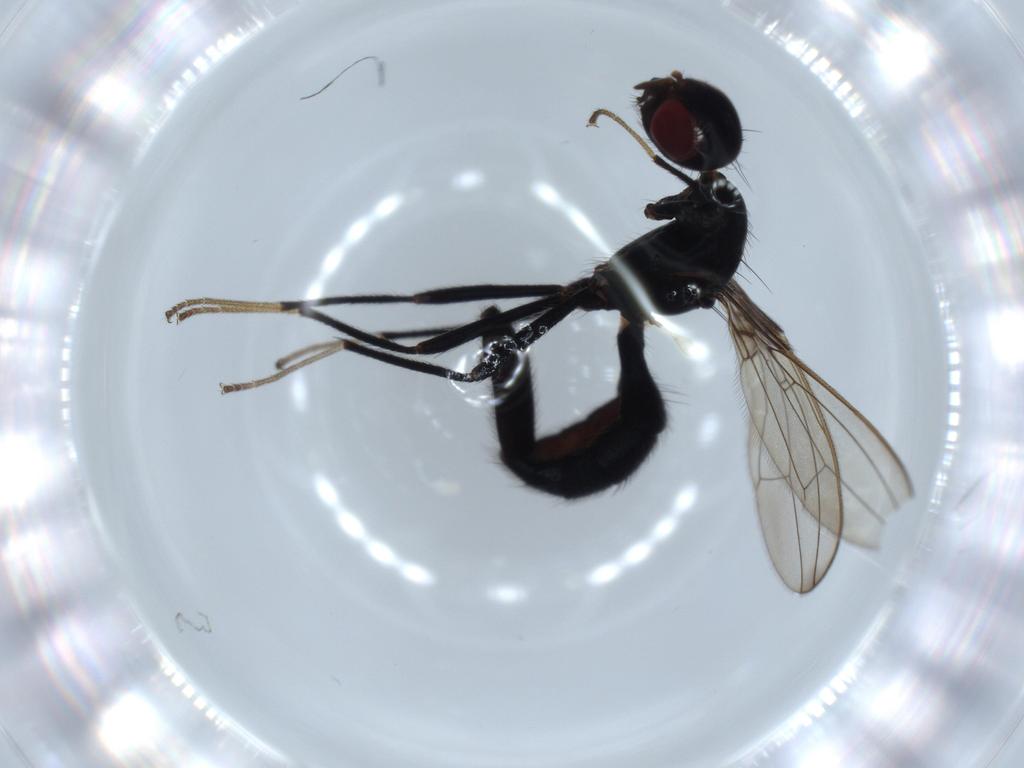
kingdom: Animalia
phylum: Arthropoda
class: Insecta
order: Diptera
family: Richardiidae
